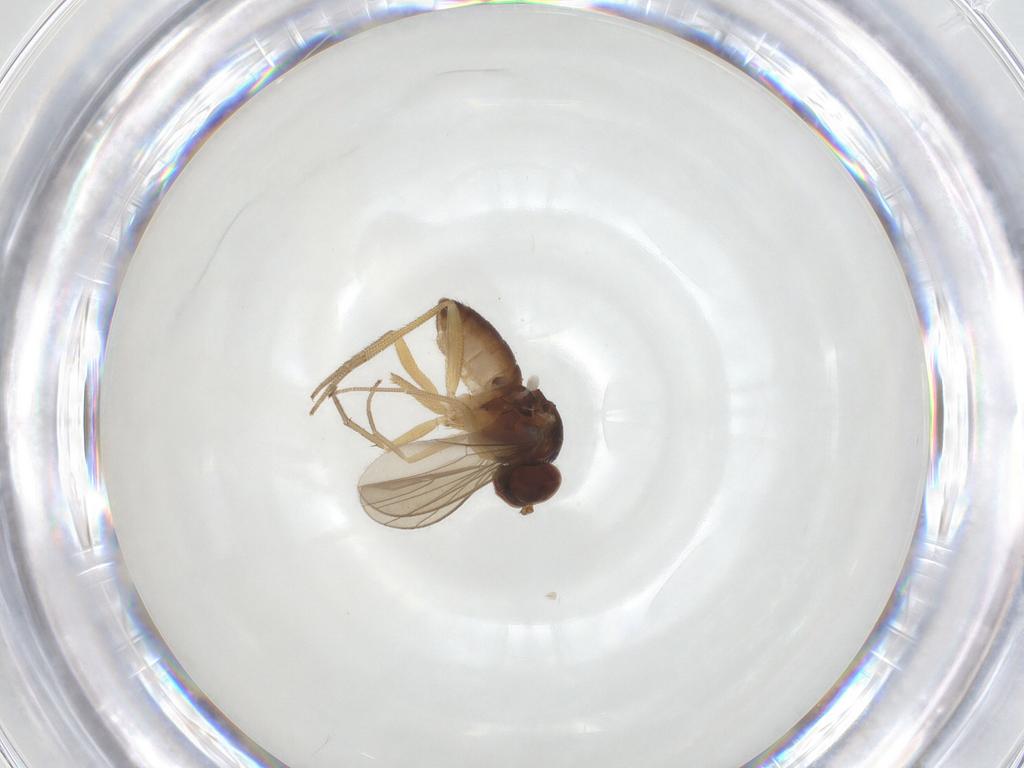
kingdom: Animalia
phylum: Arthropoda
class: Insecta
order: Diptera
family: Dolichopodidae
